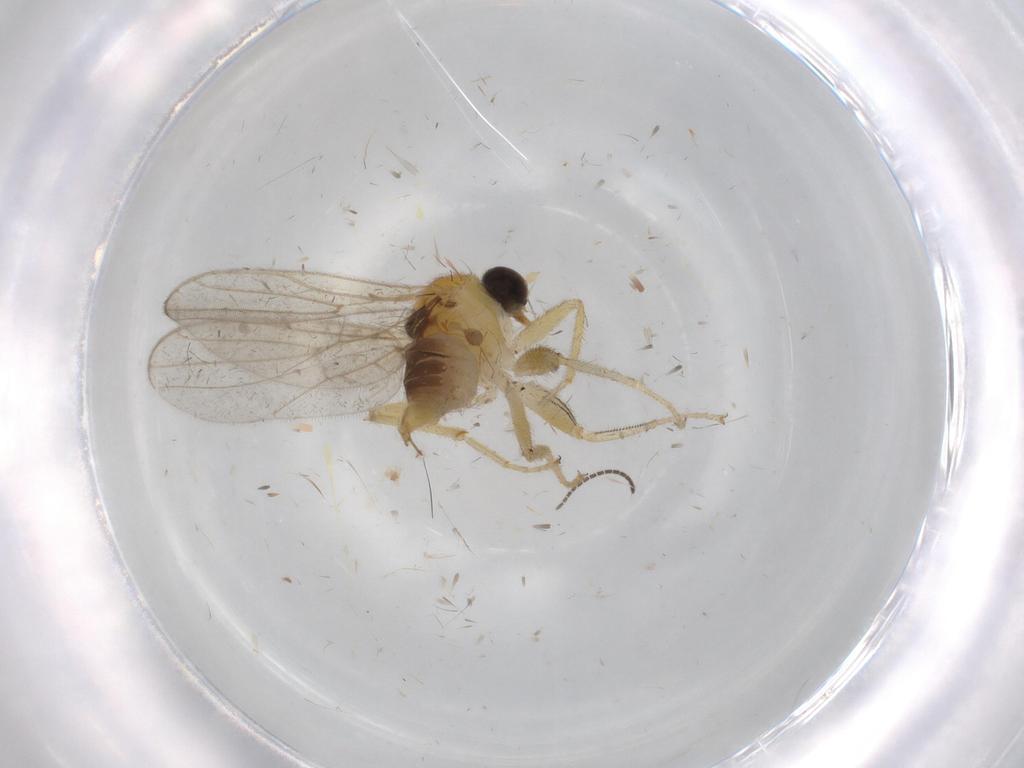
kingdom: Animalia
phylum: Arthropoda
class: Insecta
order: Diptera
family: Hybotidae
